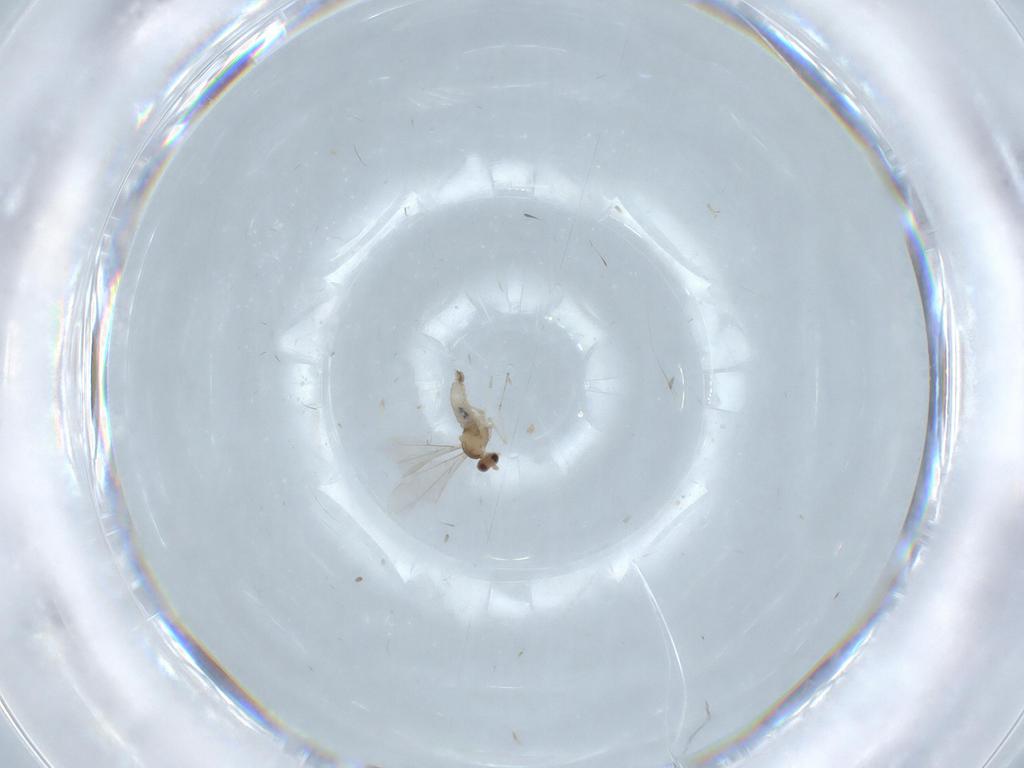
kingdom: Animalia
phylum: Arthropoda
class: Insecta
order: Diptera
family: Cecidomyiidae
